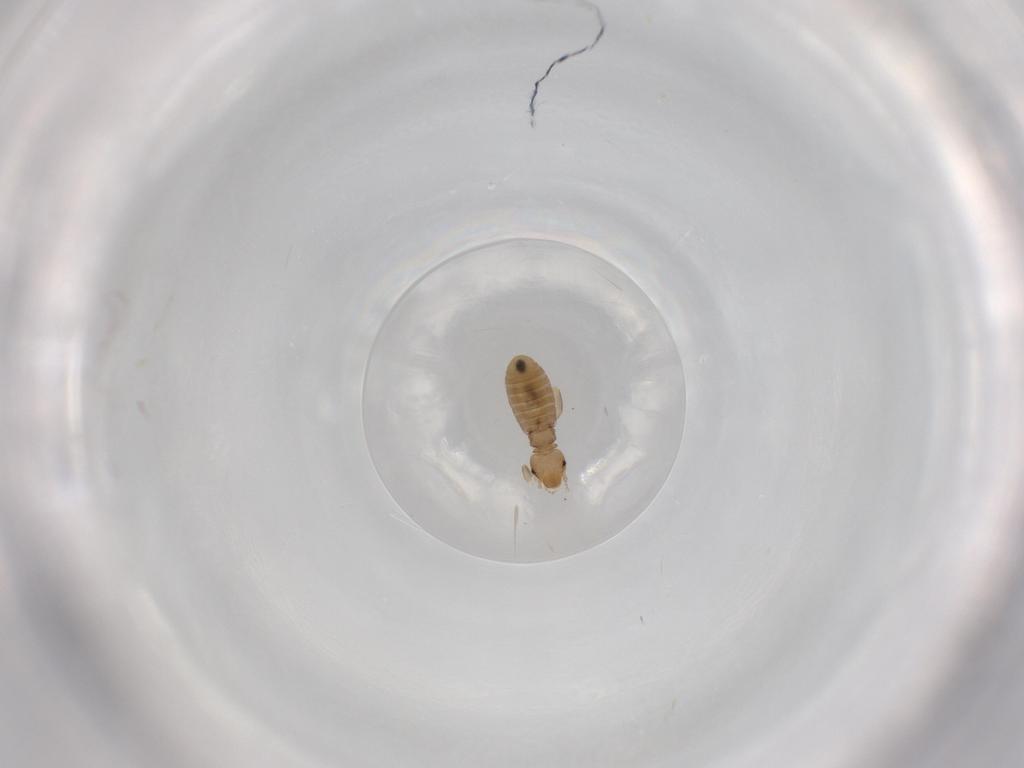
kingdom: Animalia
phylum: Arthropoda
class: Insecta
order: Psocodea
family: Liposcelididae
